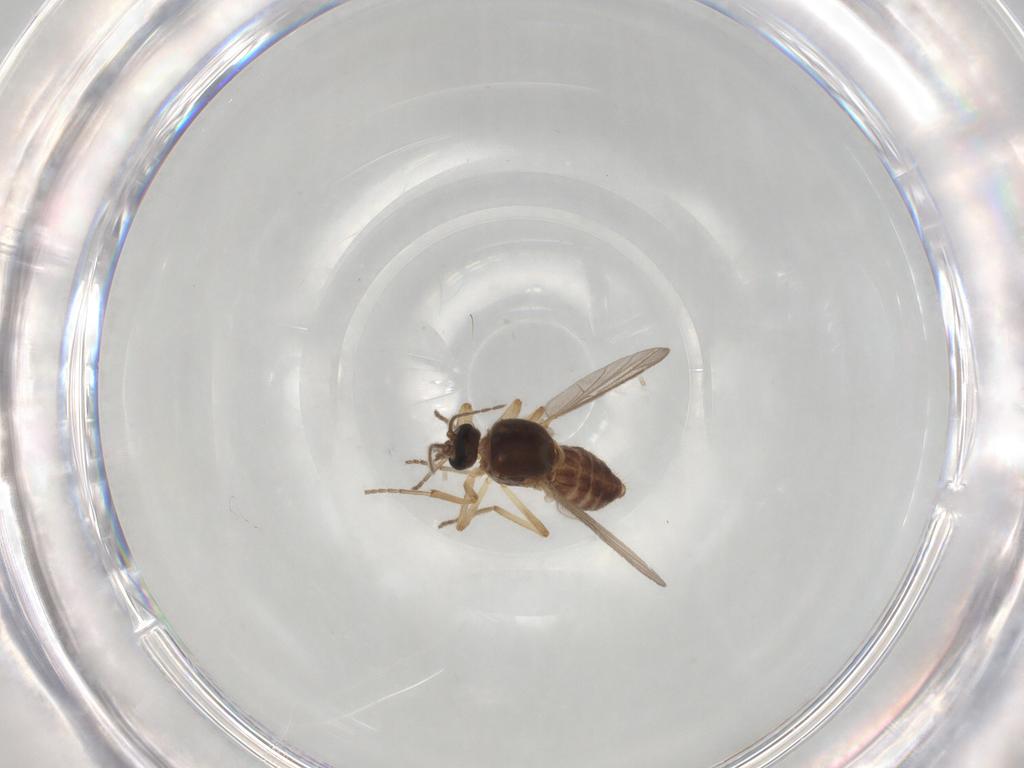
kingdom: Animalia
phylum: Arthropoda
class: Insecta
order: Diptera
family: Ceratopogonidae
